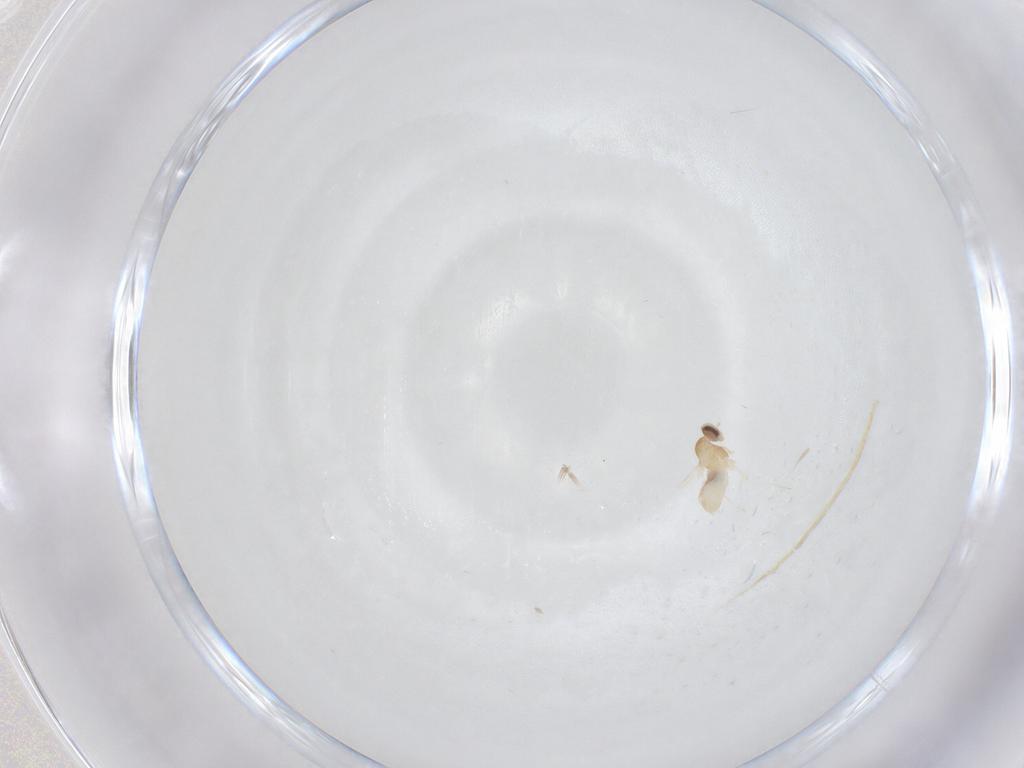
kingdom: Animalia
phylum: Arthropoda
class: Insecta
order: Diptera
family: Cecidomyiidae
